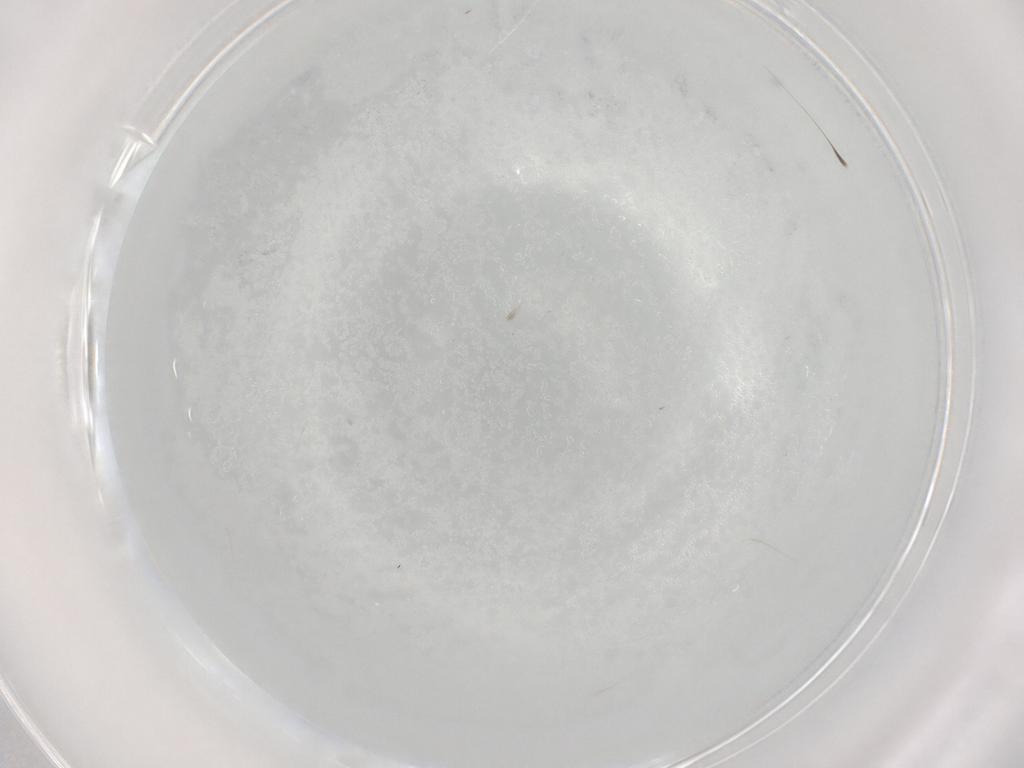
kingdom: Animalia
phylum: Arthropoda
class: Insecta
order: Hemiptera
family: Aleyrodidae
